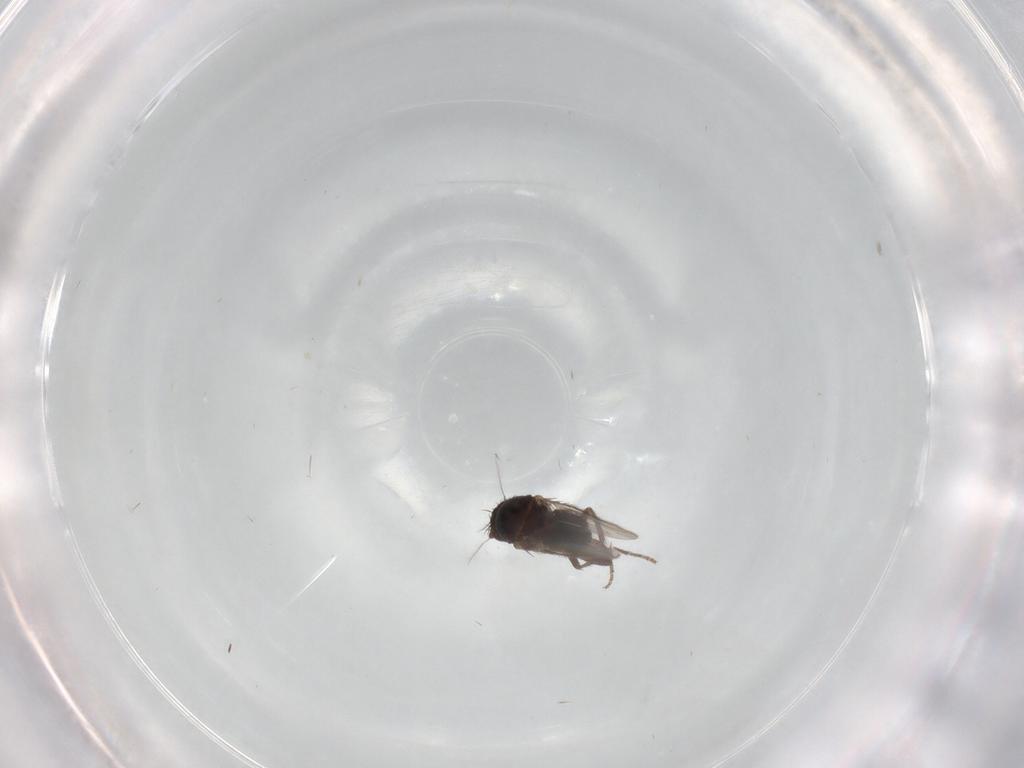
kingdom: Animalia
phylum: Arthropoda
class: Insecta
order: Diptera
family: Sphaeroceridae
